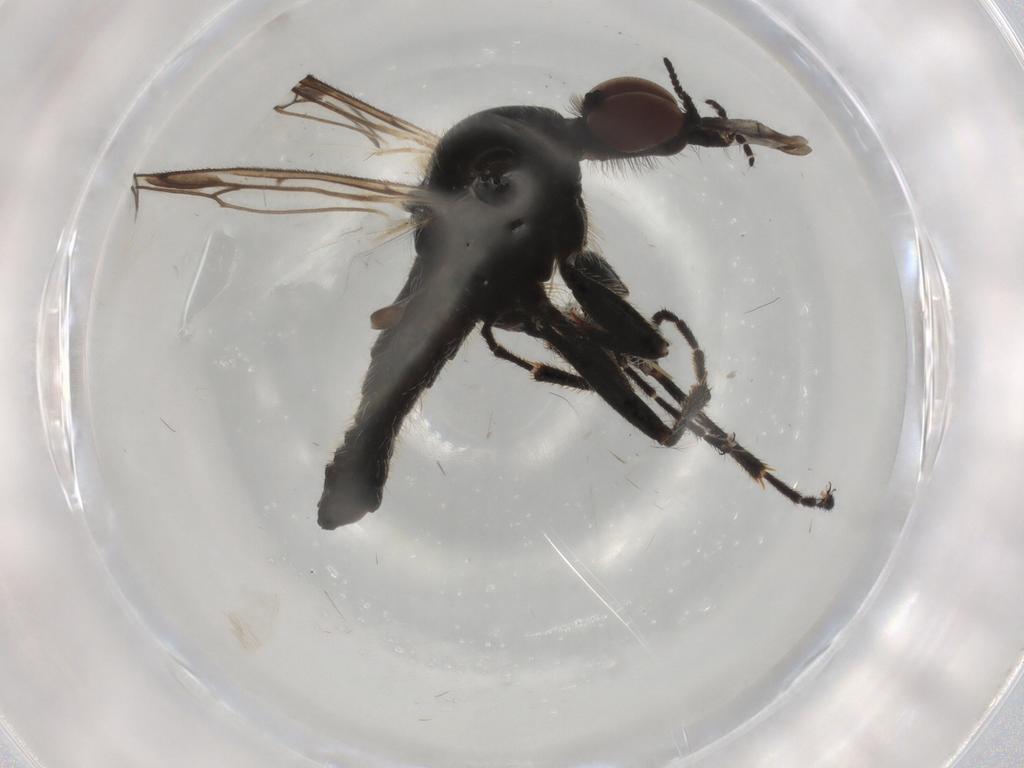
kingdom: Animalia
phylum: Arthropoda
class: Insecta
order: Diptera
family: Bibionidae
